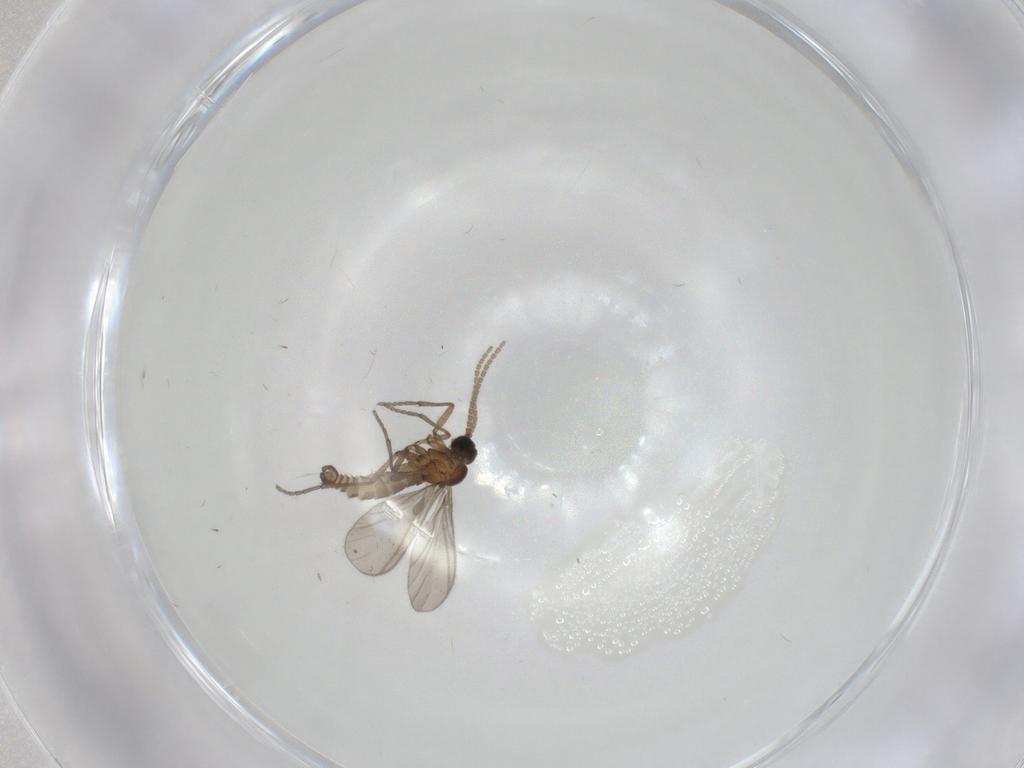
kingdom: Animalia
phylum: Arthropoda
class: Insecta
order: Diptera
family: Sciaridae
